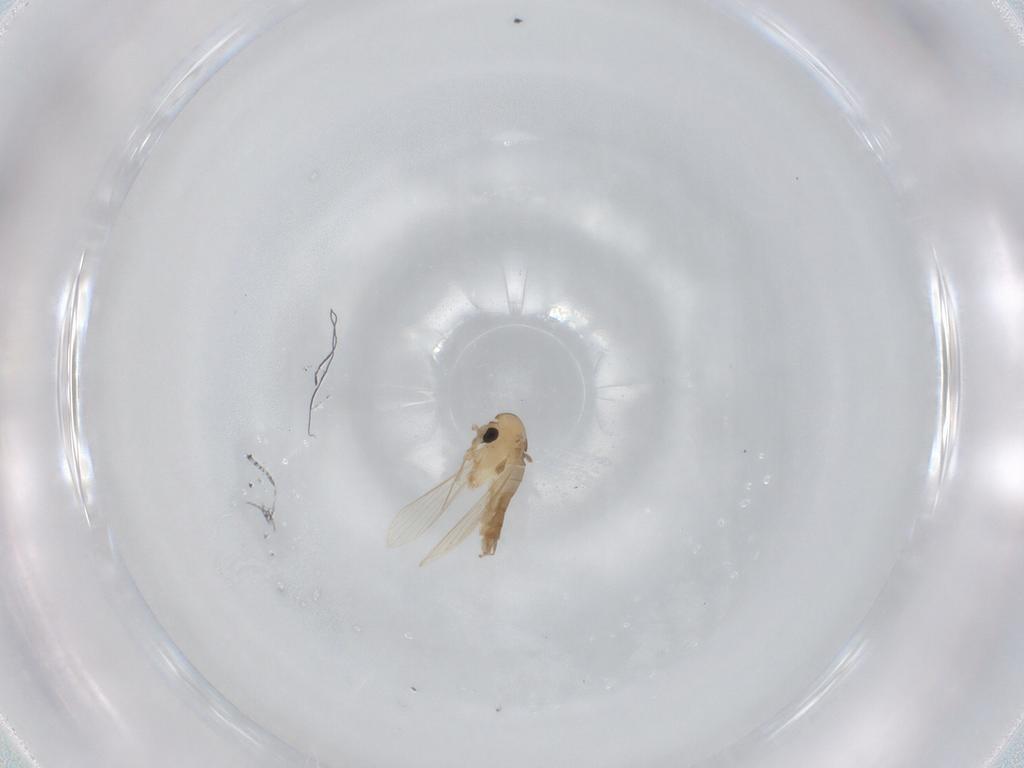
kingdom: Animalia
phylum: Arthropoda
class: Insecta
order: Diptera
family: Psychodidae
